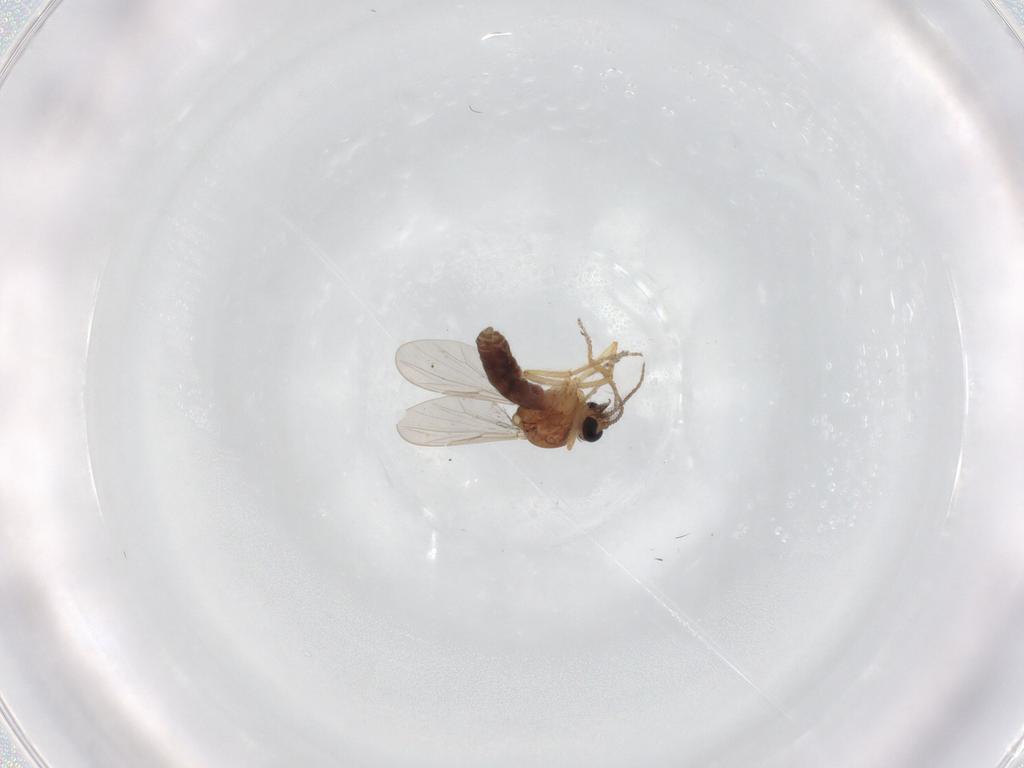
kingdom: Animalia
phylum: Arthropoda
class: Insecta
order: Diptera
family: Ceratopogonidae
